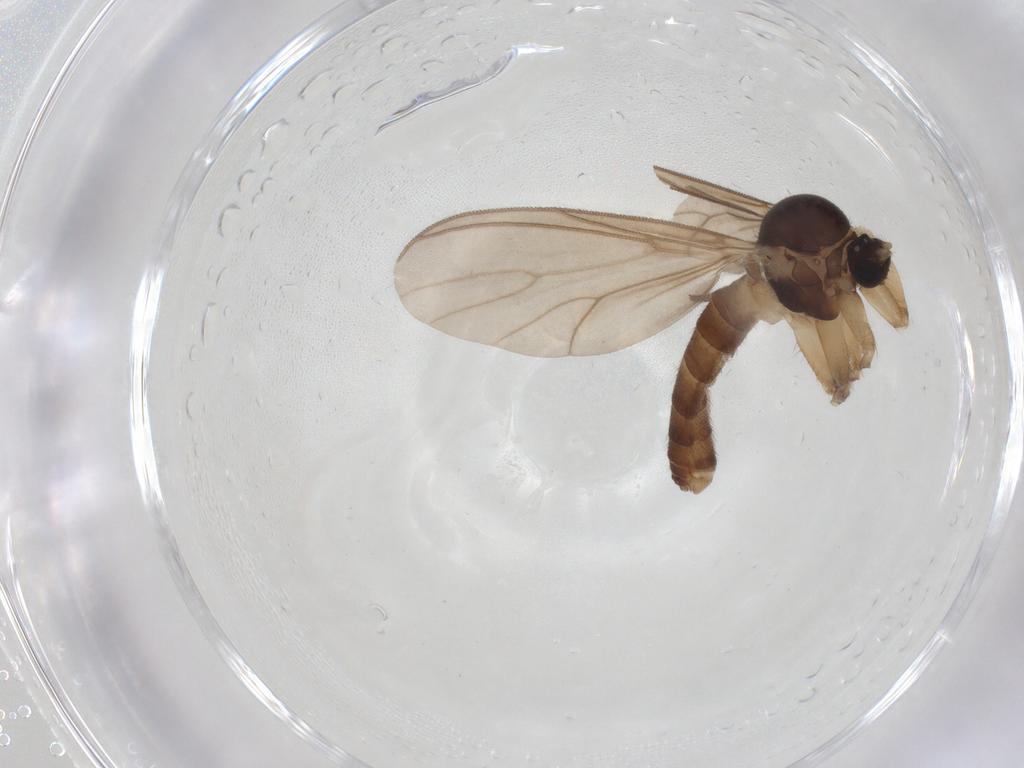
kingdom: Animalia
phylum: Arthropoda
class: Insecta
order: Diptera
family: Mycetophilidae
